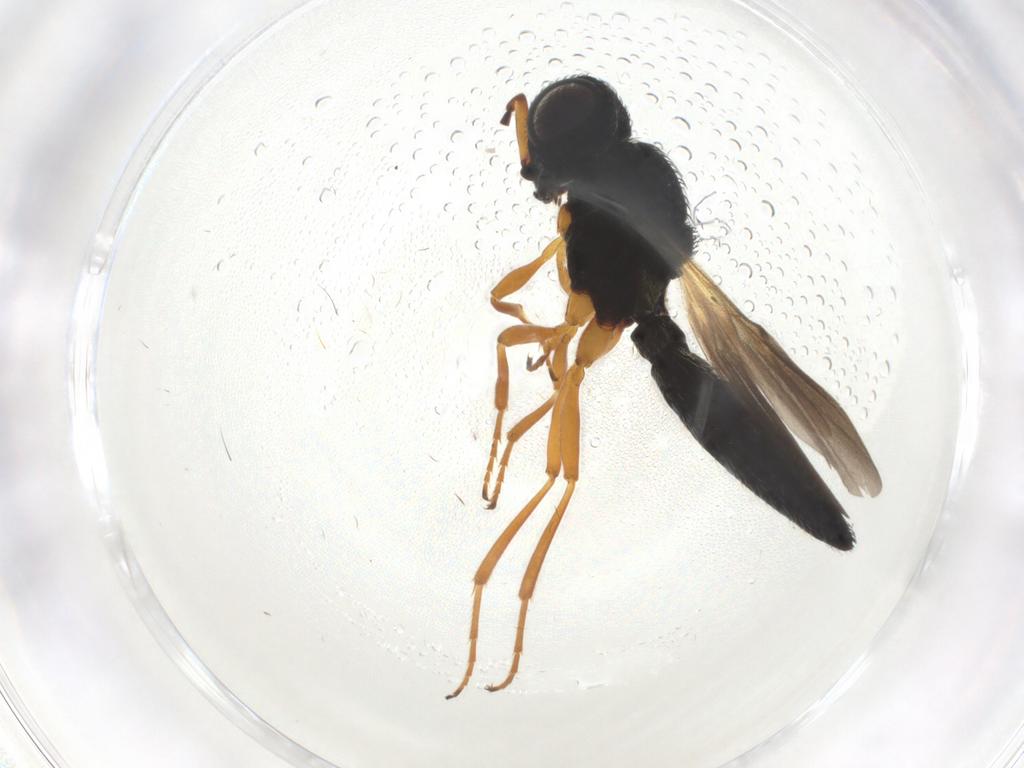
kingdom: Animalia
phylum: Arthropoda
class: Insecta
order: Hymenoptera
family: Scelionidae
